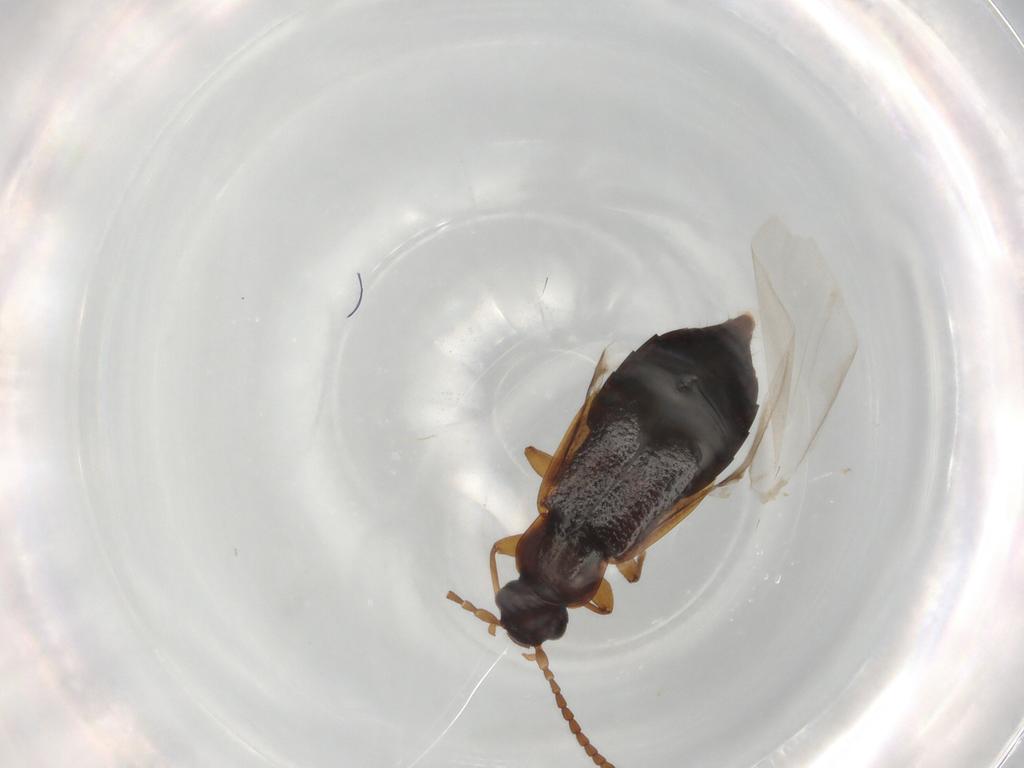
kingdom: Animalia
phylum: Arthropoda
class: Insecta
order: Coleoptera
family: Staphylinidae
